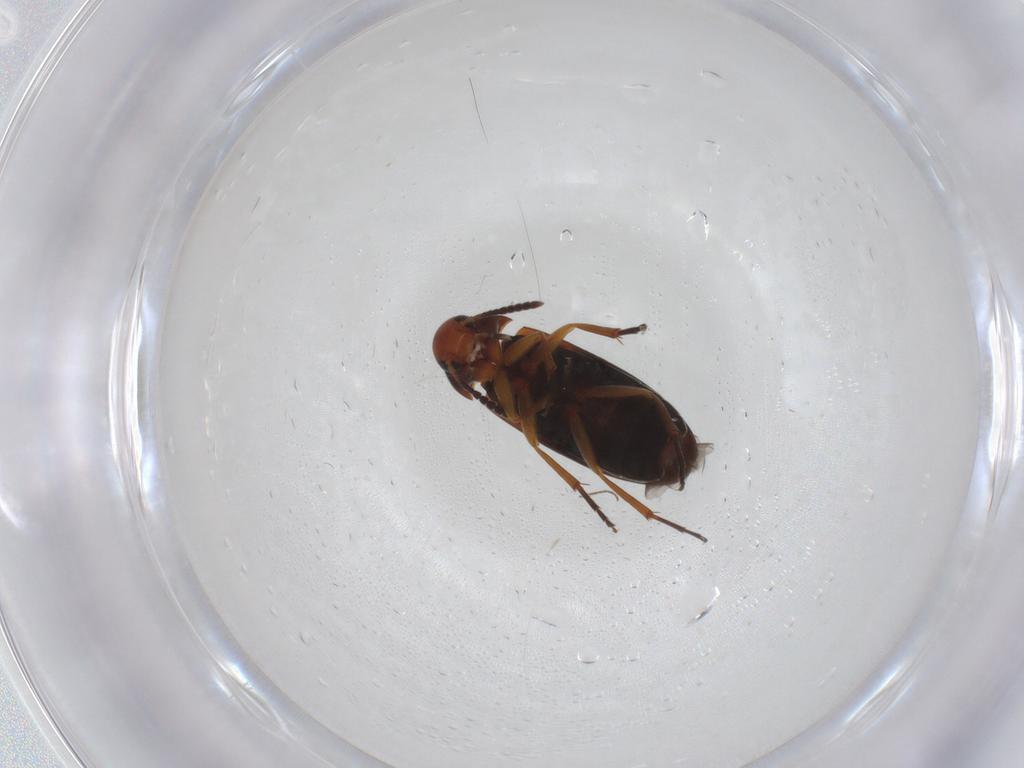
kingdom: Animalia
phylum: Arthropoda
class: Insecta
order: Coleoptera
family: Scraptiidae
